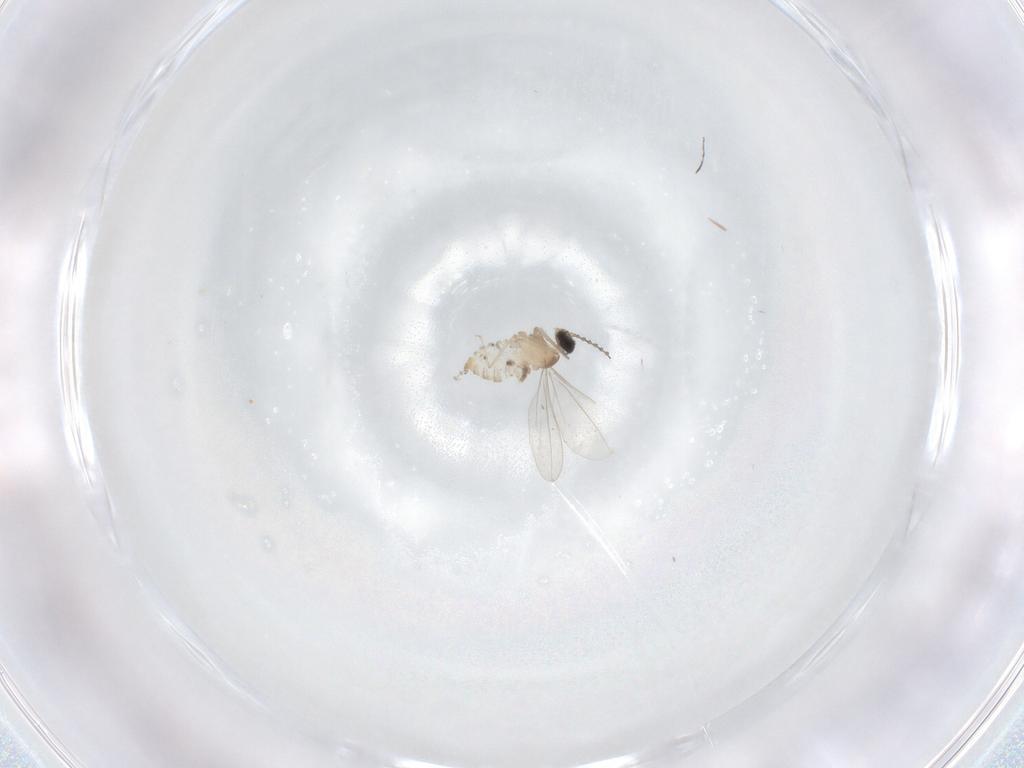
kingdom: Animalia
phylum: Arthropoda
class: Insecta
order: Diptera
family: Cecidomyiidae
